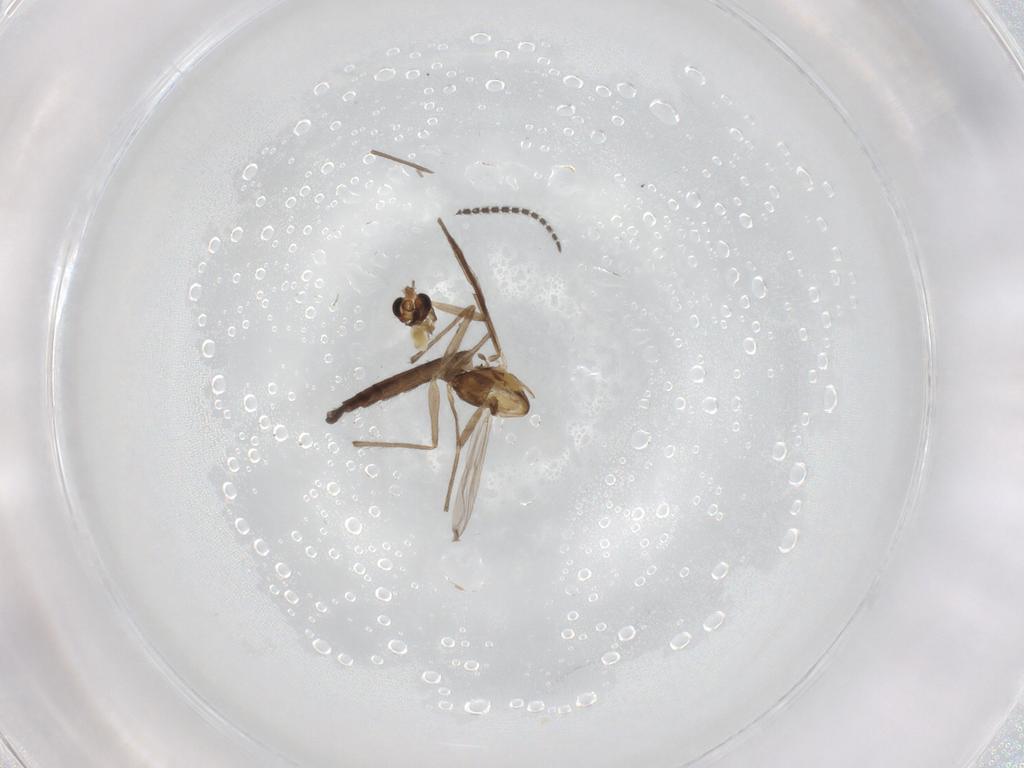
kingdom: Animalia
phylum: Arthropoda
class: Insecta
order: Diptera
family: Chironomidae
